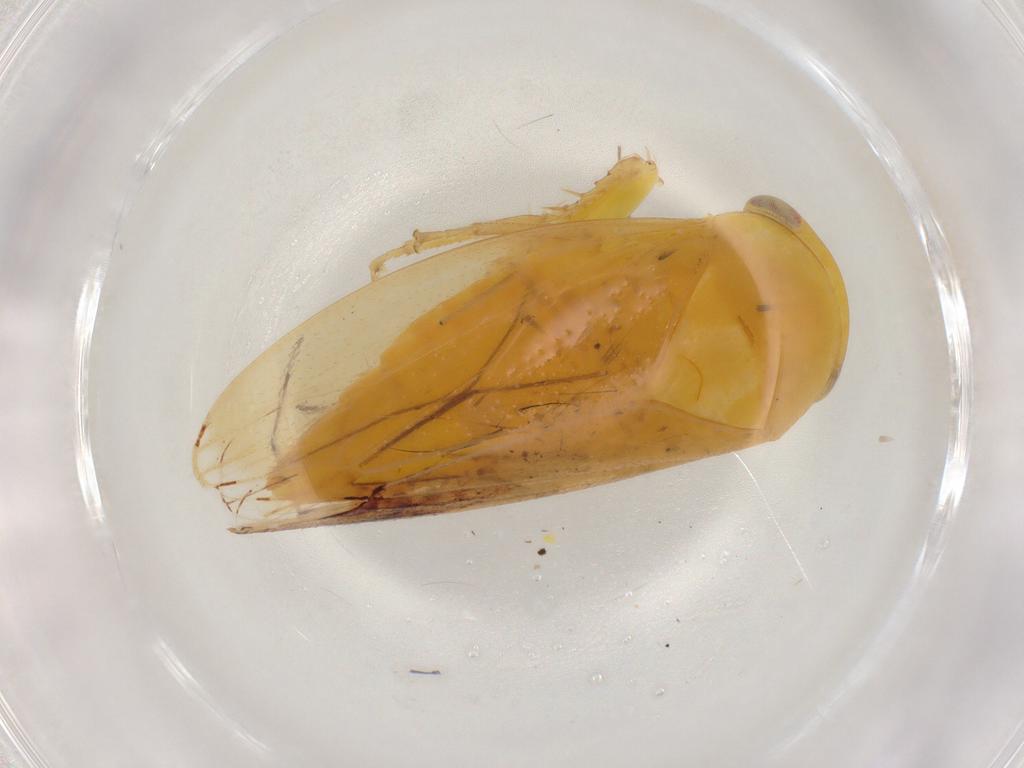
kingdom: Animalia
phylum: Arthropoda
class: Insecta
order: Hemiptera
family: Cicadellidae
